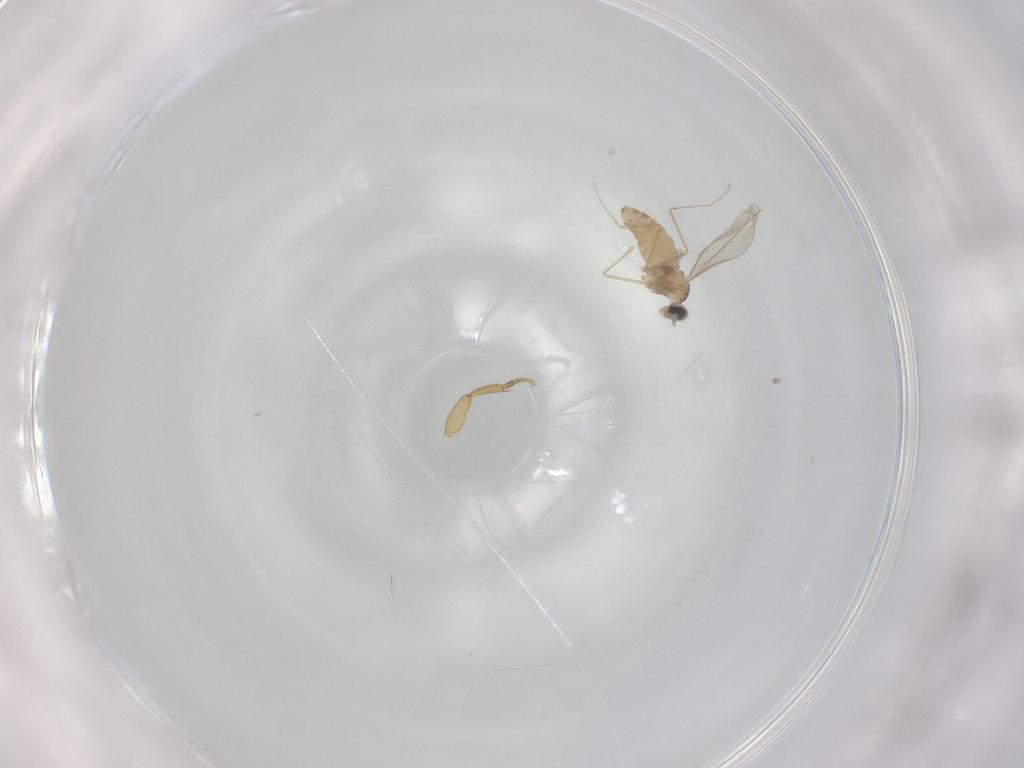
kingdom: Animalia
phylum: Arthropoda
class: Insecta
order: Diptera
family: Cecidomyiidae
